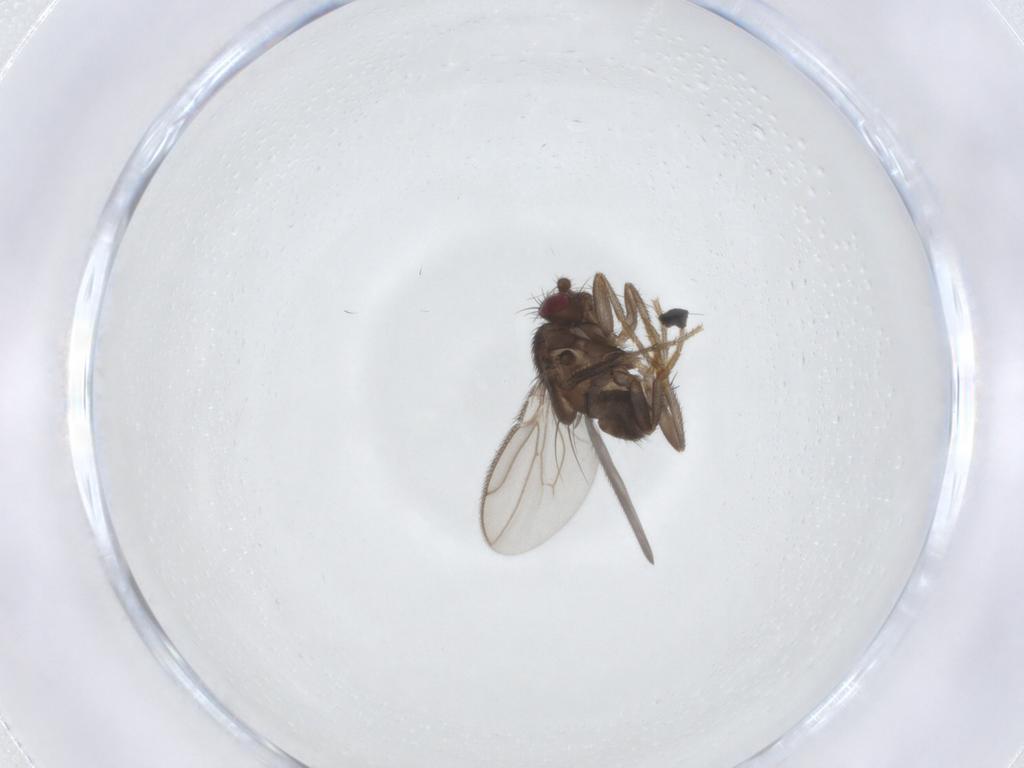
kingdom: Animalia
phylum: Arthropoda
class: Insecta
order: Diptera
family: Sphaeroceridae
